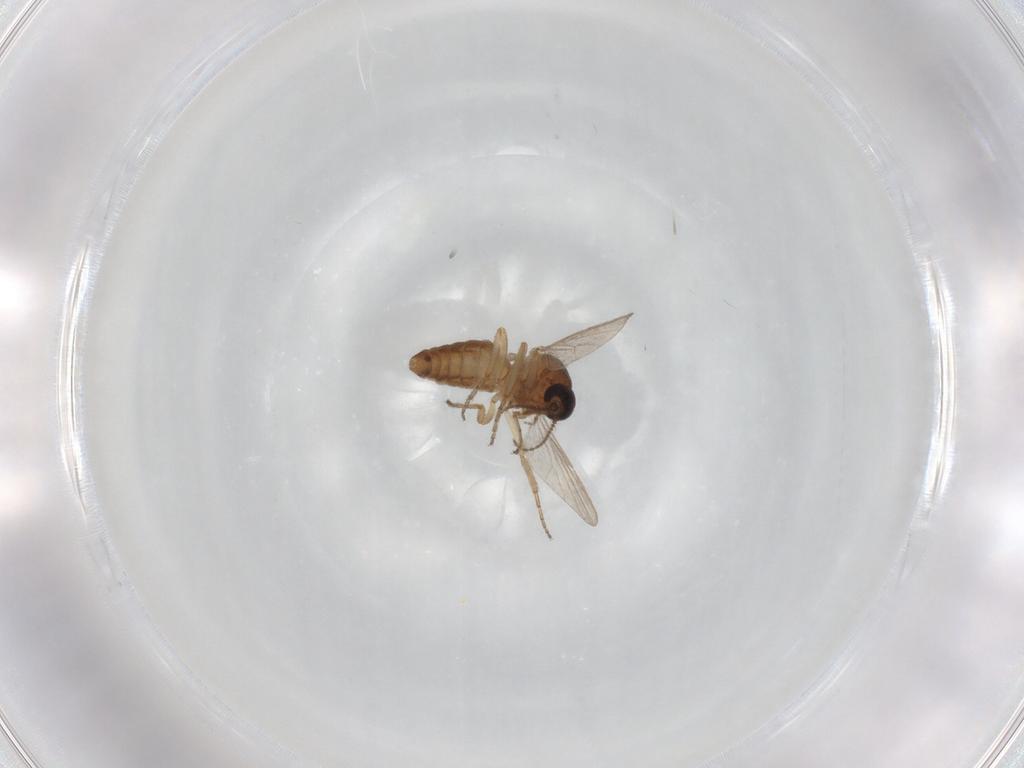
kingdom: Animalia
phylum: Arthropoda
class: Insecta
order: Diptera
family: Ceratopogonidae
